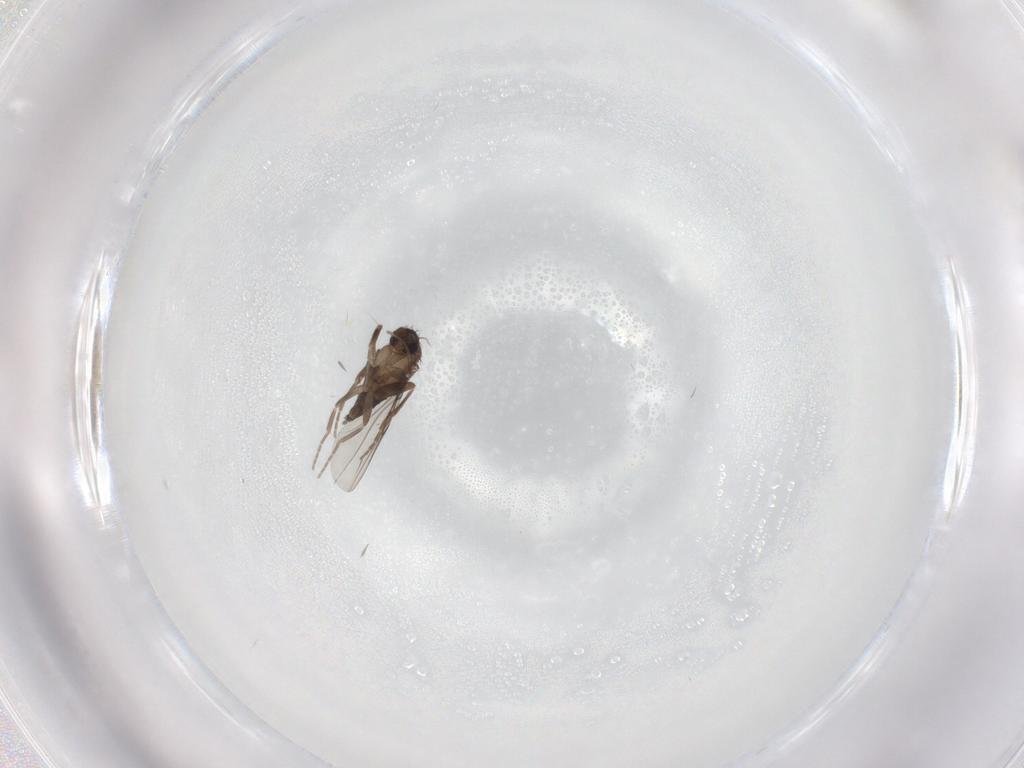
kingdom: Animalia
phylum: Arthropoda
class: Insecta
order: Diptera
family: Phoridae
